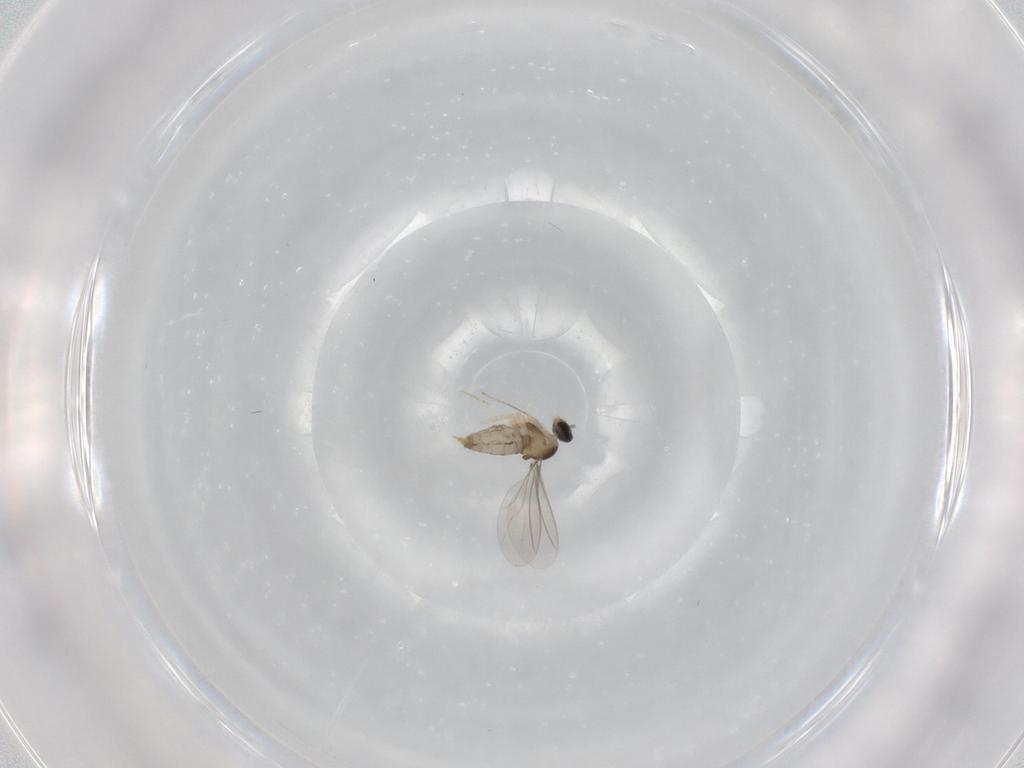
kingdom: Animalia
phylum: Arthropoda
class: Insecta
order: Diptera
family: Cecidomyiidae
